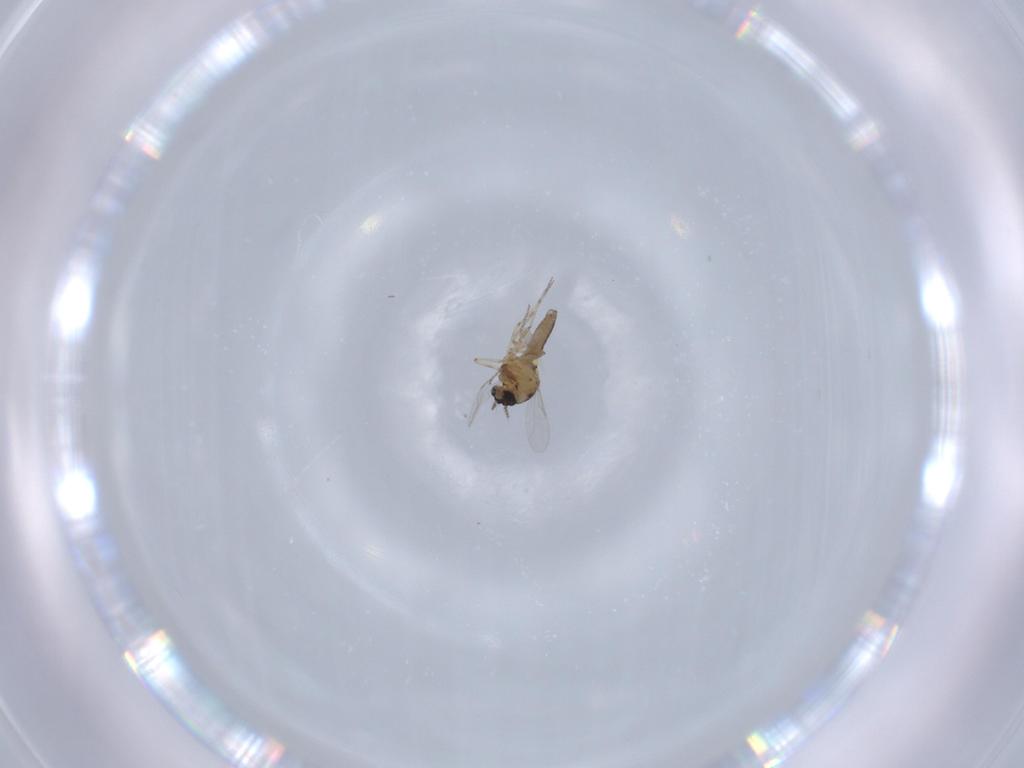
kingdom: Animalia
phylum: Arthropoda
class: Insecta
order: Diptera
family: Ceratopogonidae
